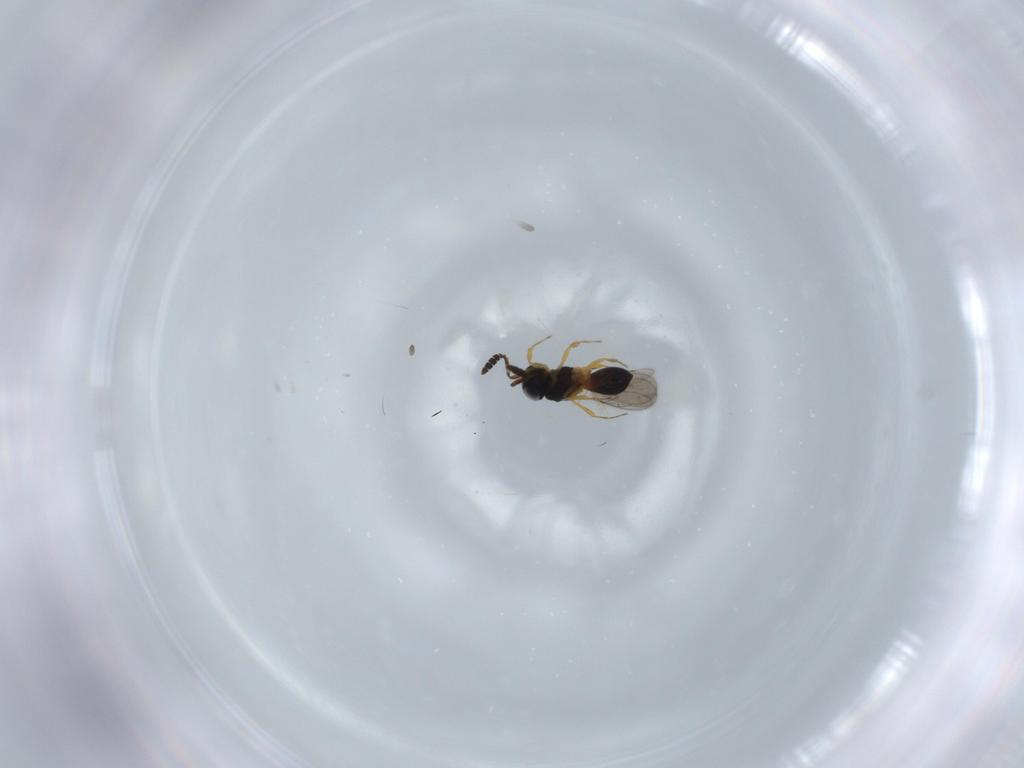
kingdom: Animalia
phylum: Arthropoda
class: Insecta
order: Hymenoptera
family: Scelionidae
